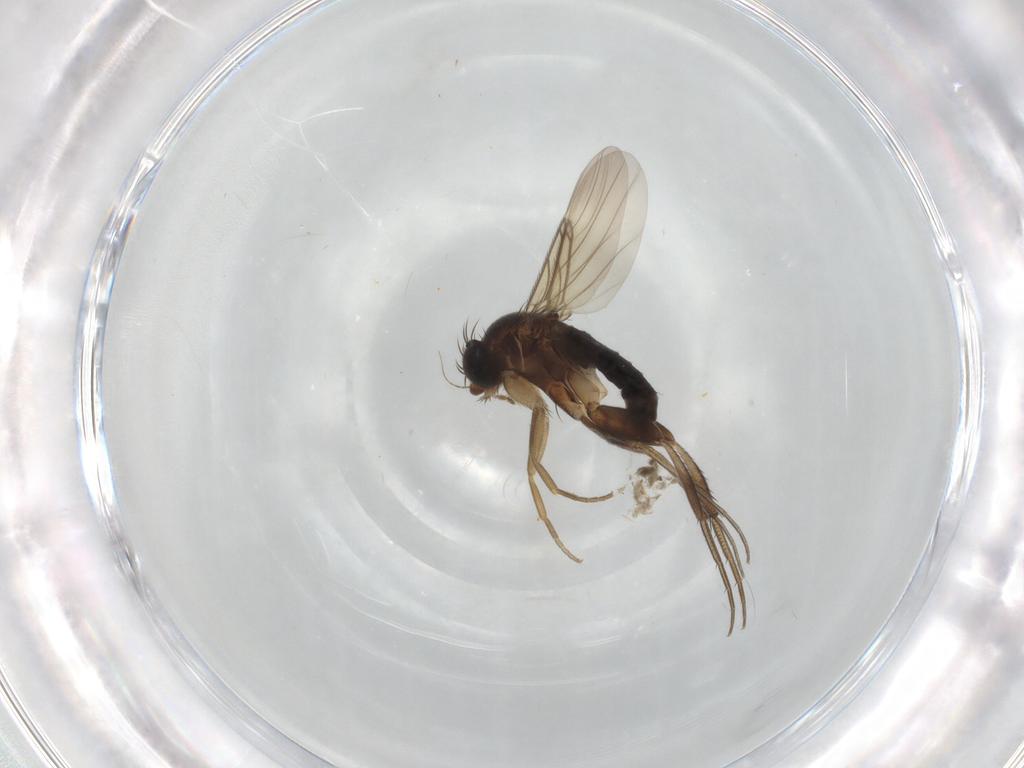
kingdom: Animalia
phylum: Arthropoda
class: Insecta
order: Diptera
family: Phoridae
